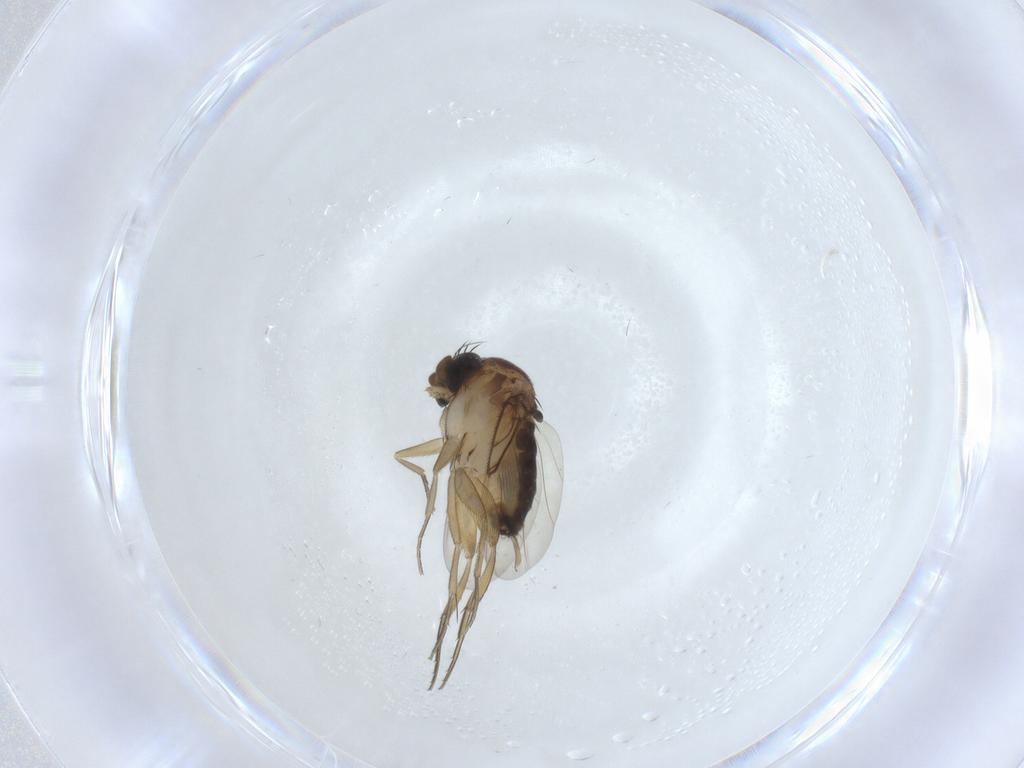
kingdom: Animalia
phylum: Arthropoda
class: Insecta
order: Diptera
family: Phoridae
